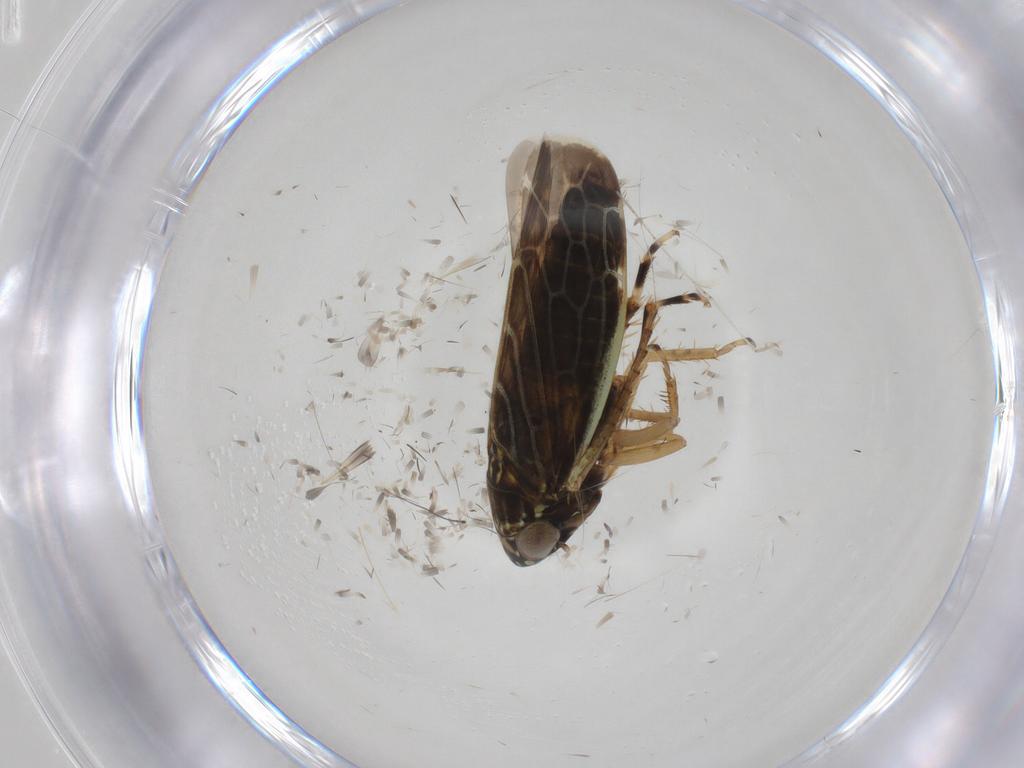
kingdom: Animalia
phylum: Arthropoda
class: Insecta
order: Hemiptera
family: Cicadellidae
